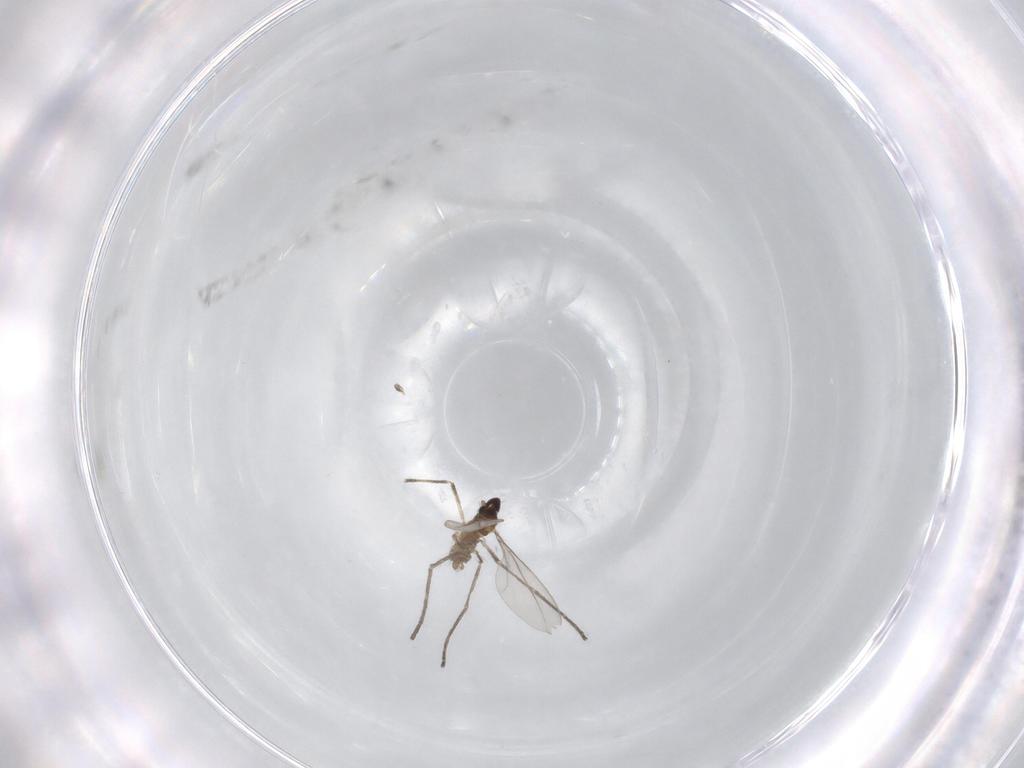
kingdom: Animalia
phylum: Arthropoda
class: Insecta
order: Diptera
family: Cecidomyiidae
